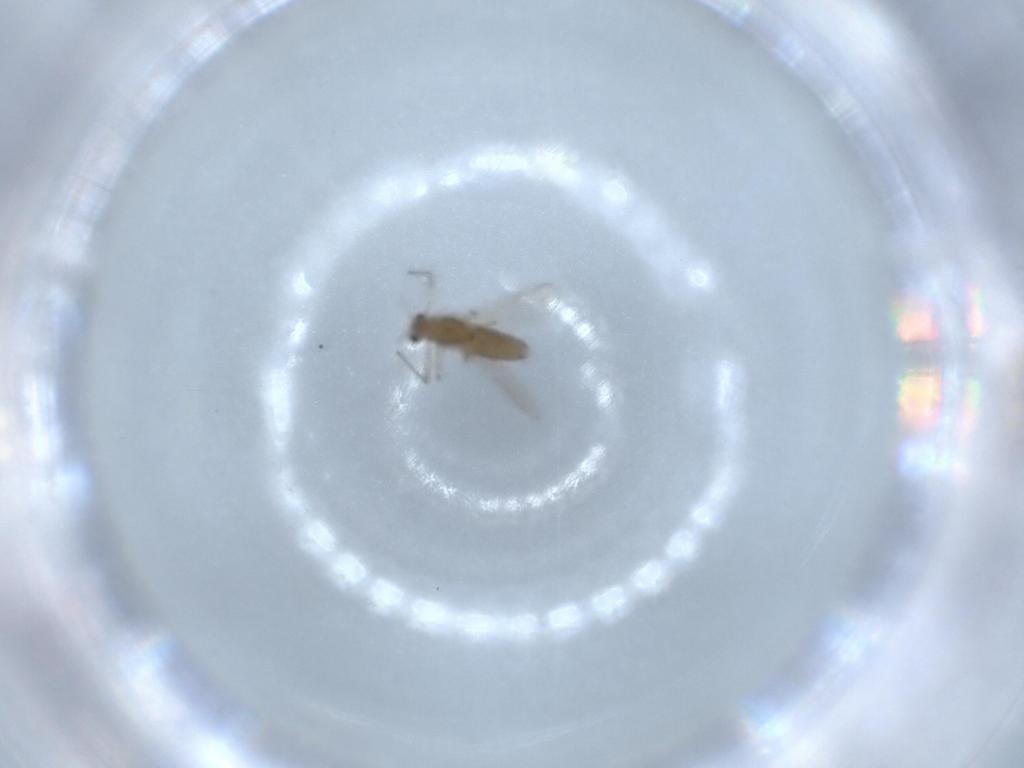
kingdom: Animalia
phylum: Arthropoda
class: Insecta
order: Diptera
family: Chironomidae
